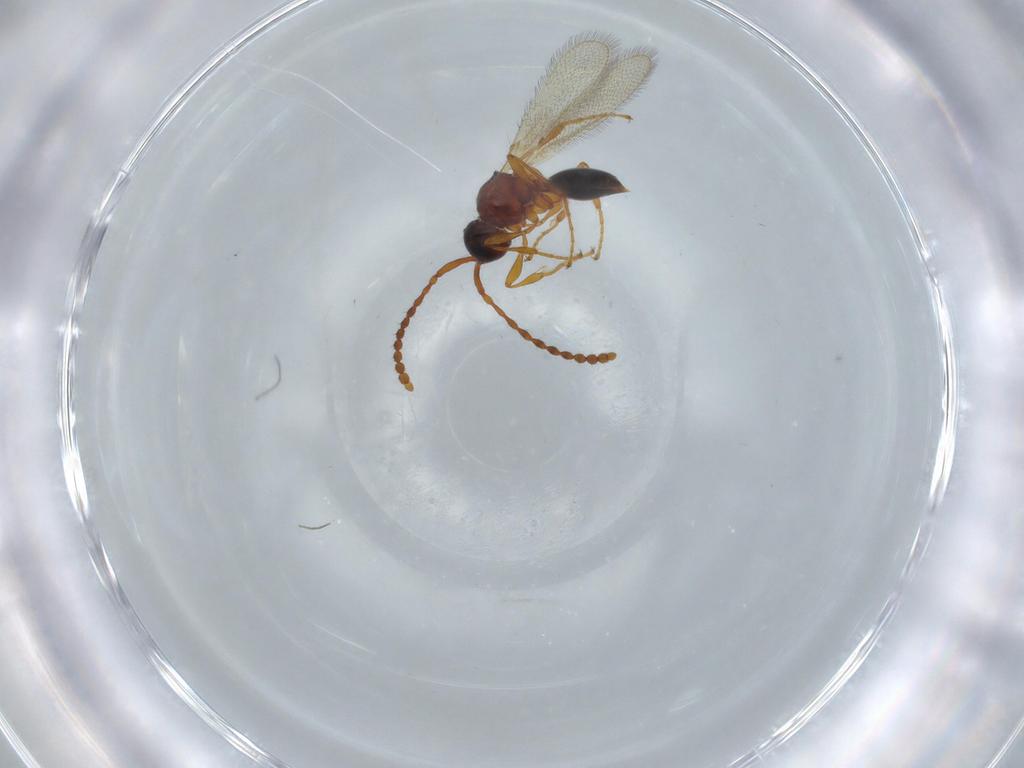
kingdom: Animalia
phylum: Arthropoda
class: Insecta
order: Hymenoptera
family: Diapriidae
